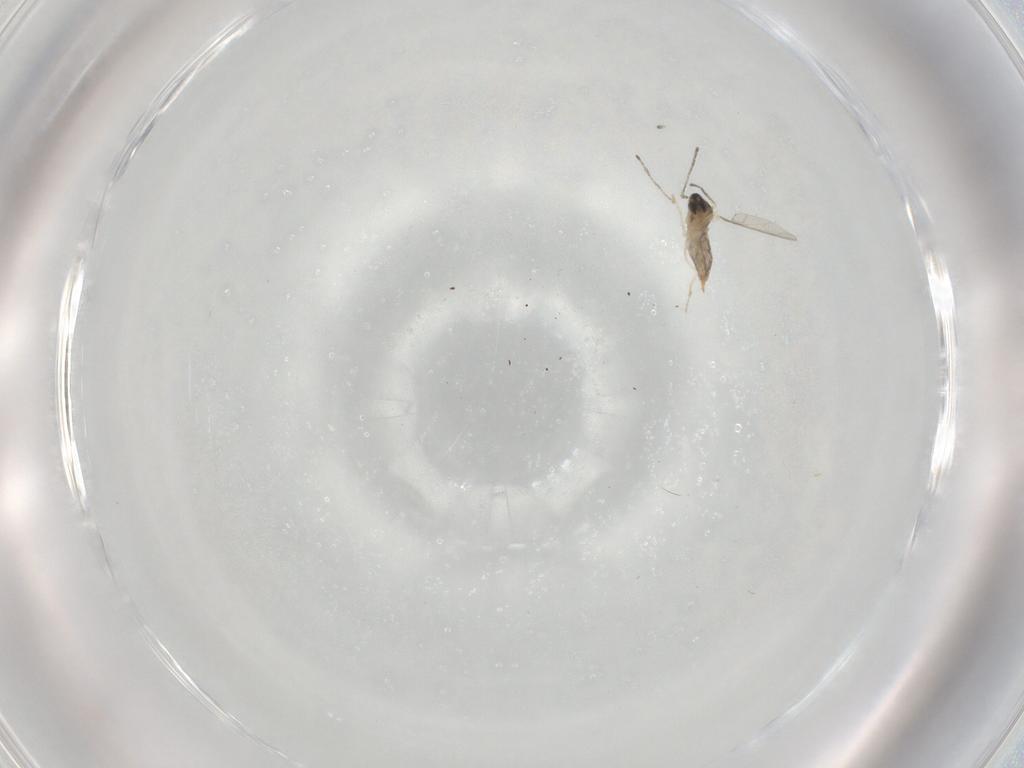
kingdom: Animalia
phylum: Arthropoda
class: Insecta
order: Diptera
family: Cecidomyiidae
